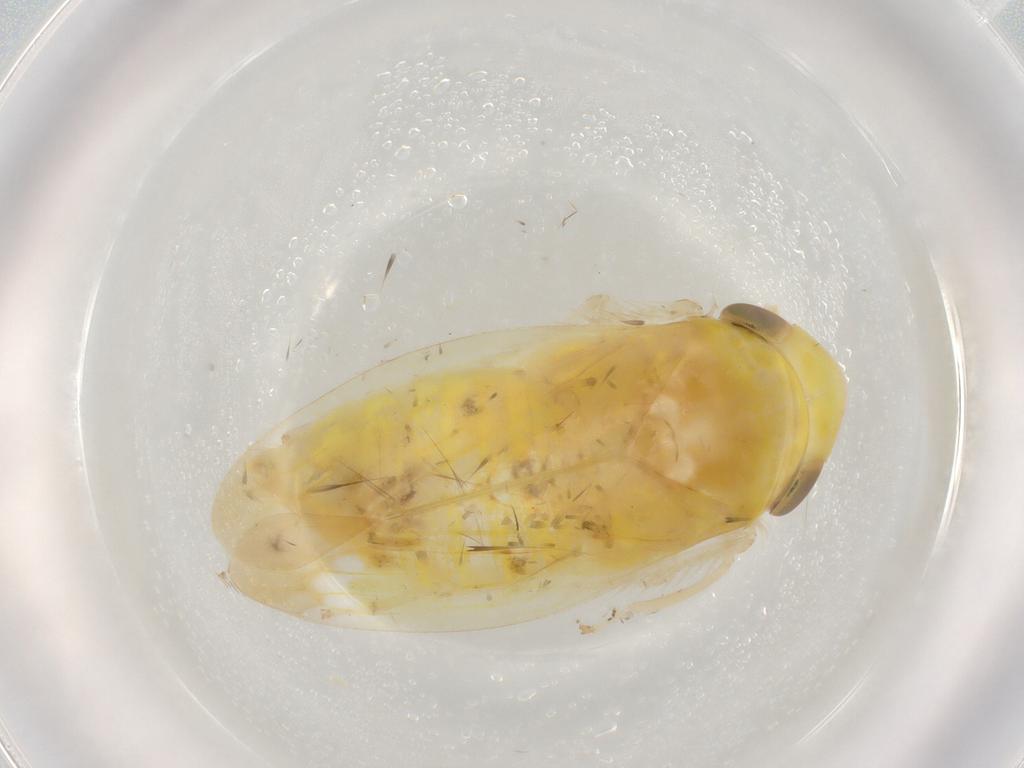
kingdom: Animalia
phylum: Arthropoda
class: Insecta
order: Hemiptera
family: Cicadellidae
